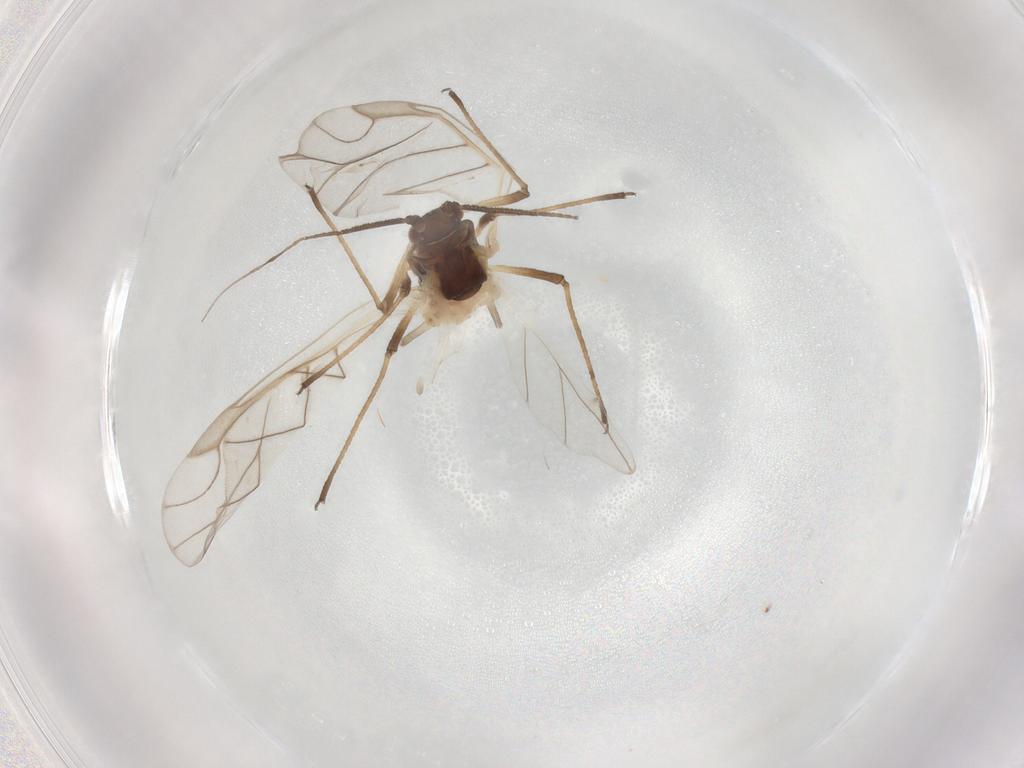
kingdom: Animalia
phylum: Arthropoda
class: Insecta
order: Hemiptera
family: Aphididae
